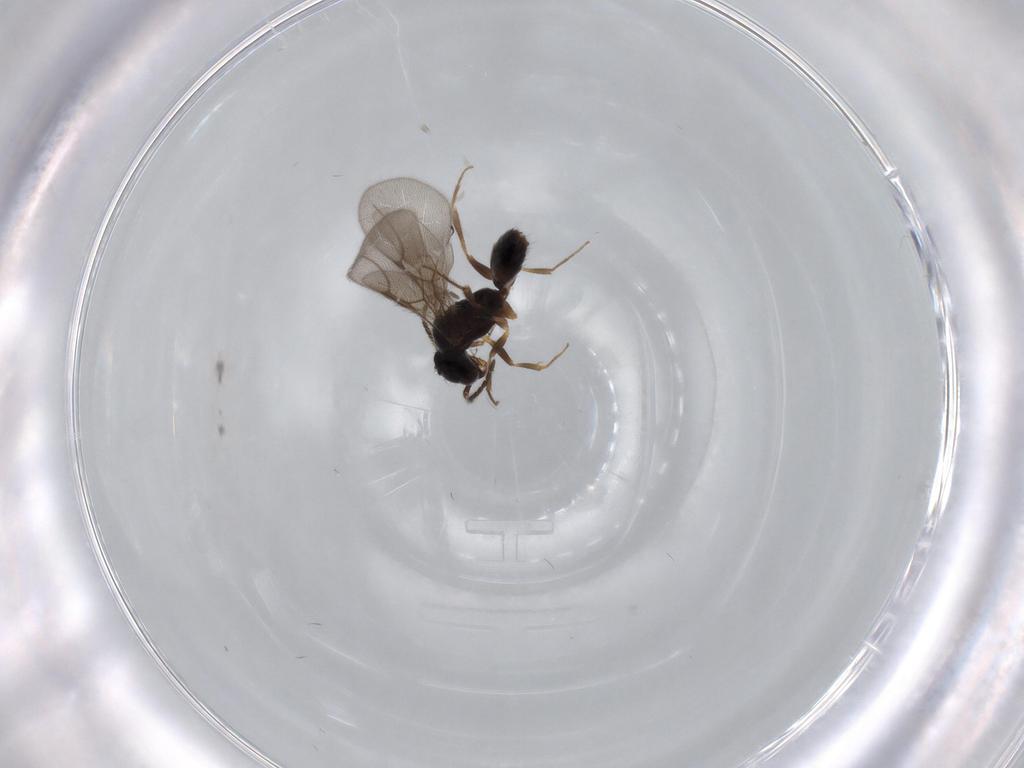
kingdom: Animalia
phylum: Arthropoda
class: Insecta
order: Hymenoptera
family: Bethylidae
